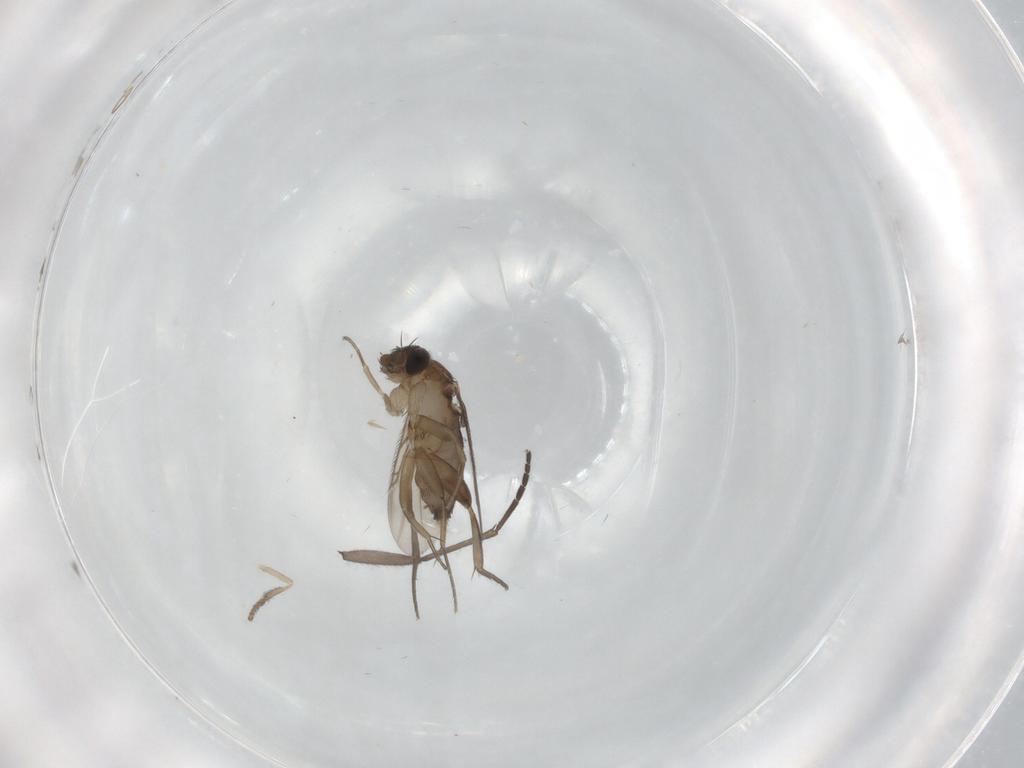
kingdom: Animalia
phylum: Arthropoda
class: Insecta
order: Diptera
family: Phoridae
